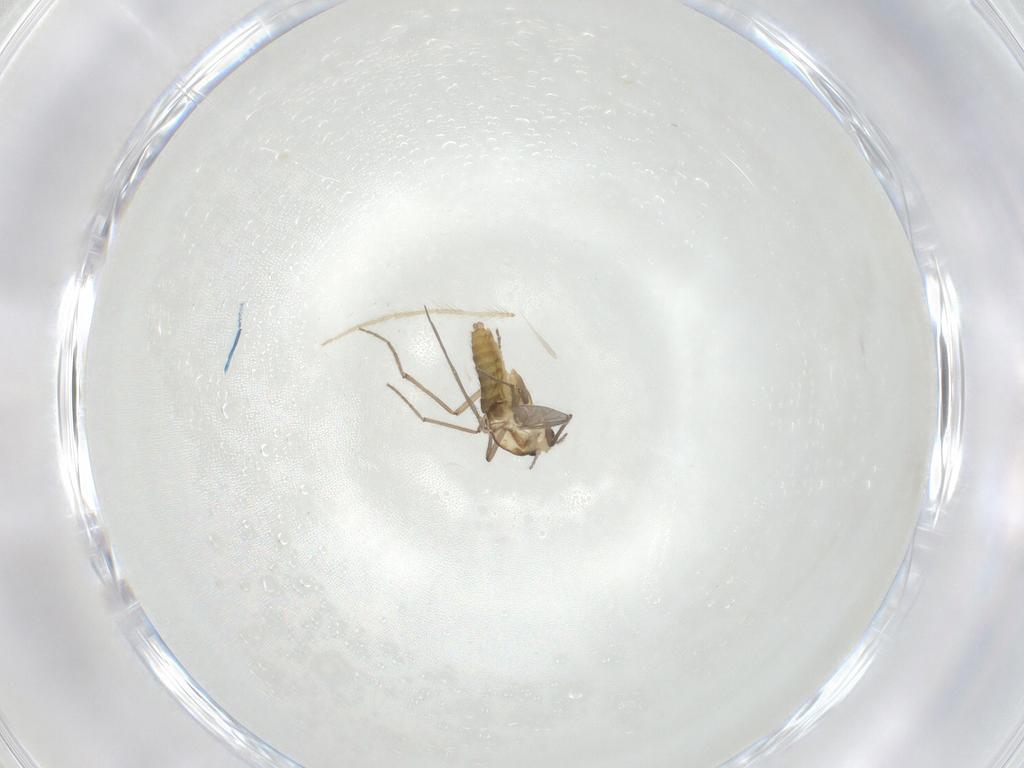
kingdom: Animalia
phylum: Arthropoda
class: Insecta
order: Diptera
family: Chironomidae
